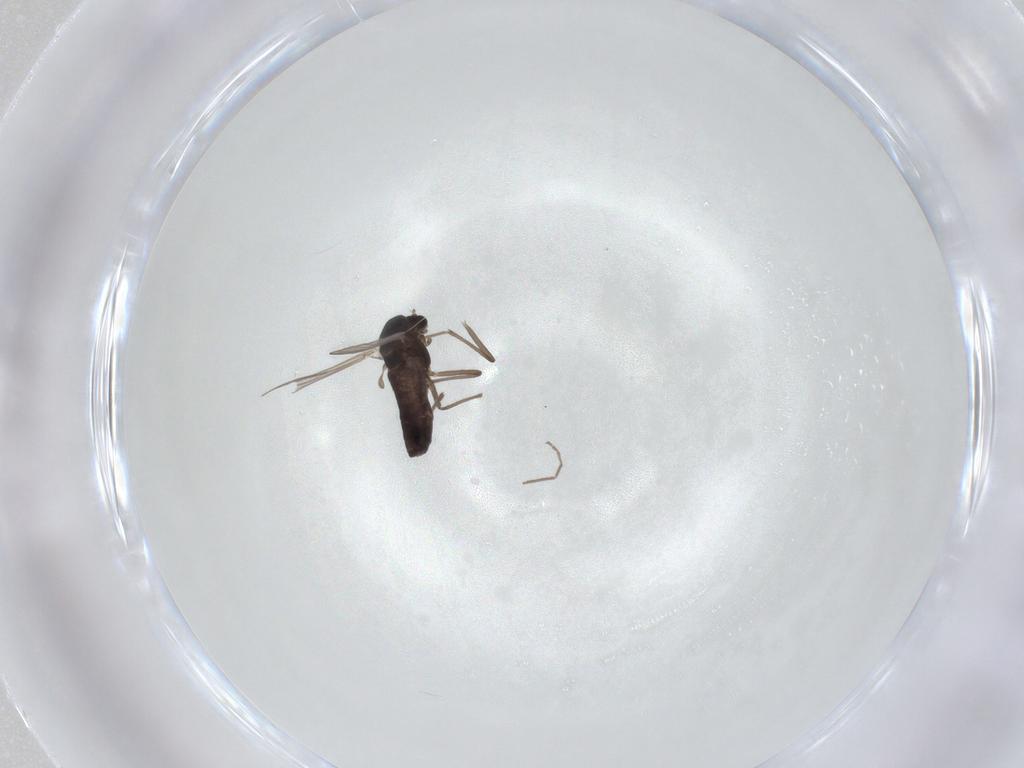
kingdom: Animalia
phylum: Arthropoda
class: Insecta
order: Diptera
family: Chironomidae
